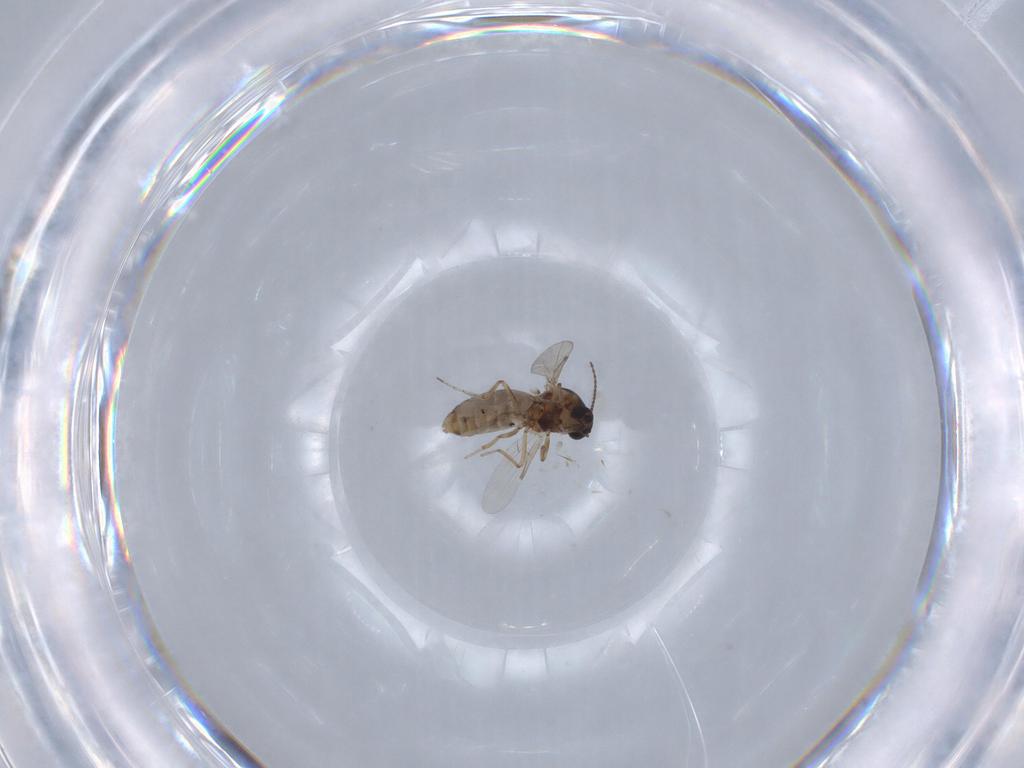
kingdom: Animalia
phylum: Arthropoda
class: Insecta
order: Diptera
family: Ceratopogonidae
